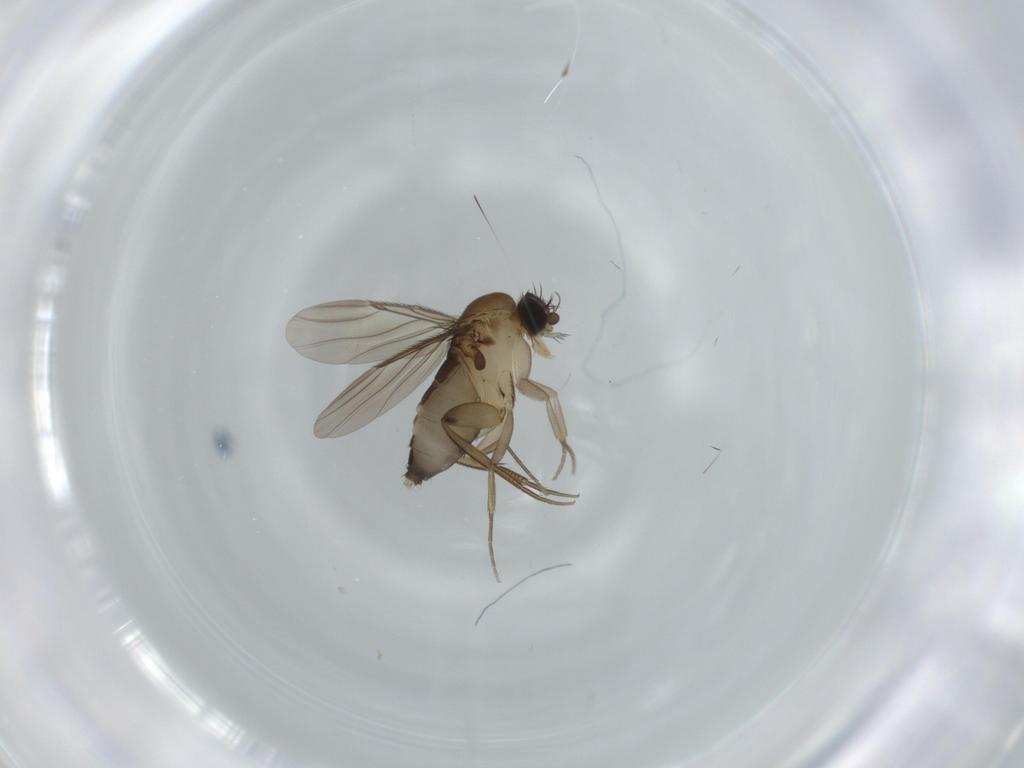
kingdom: Animalia
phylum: Arthropoda
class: Insecta
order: Diptera
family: Phoridae
